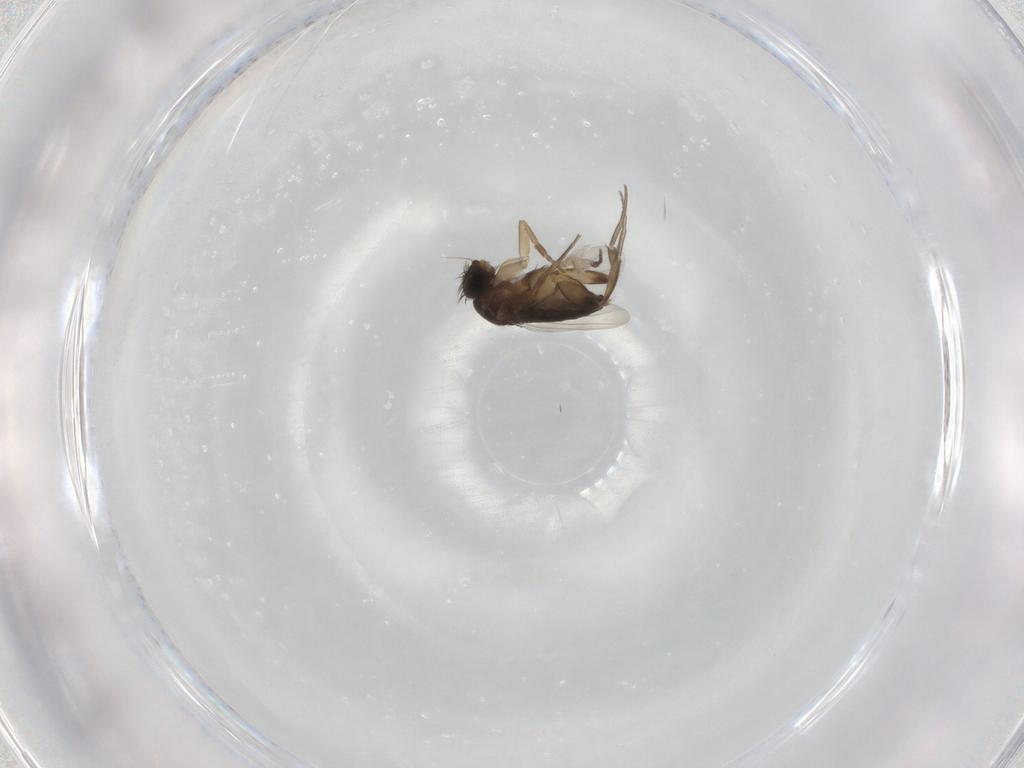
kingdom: Animalia
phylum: Arthropoda
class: Insecta
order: Diptera
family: Phoridae
